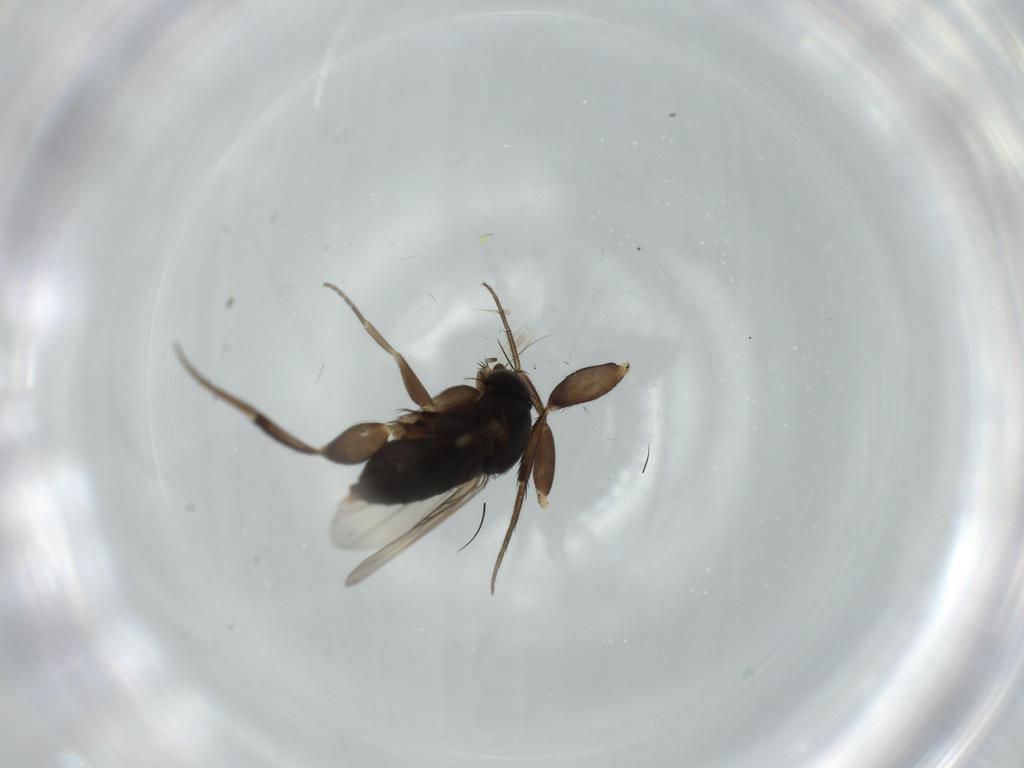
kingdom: Animalia
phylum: Arthropoda
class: Insecta
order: Diptera
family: Phoridae
